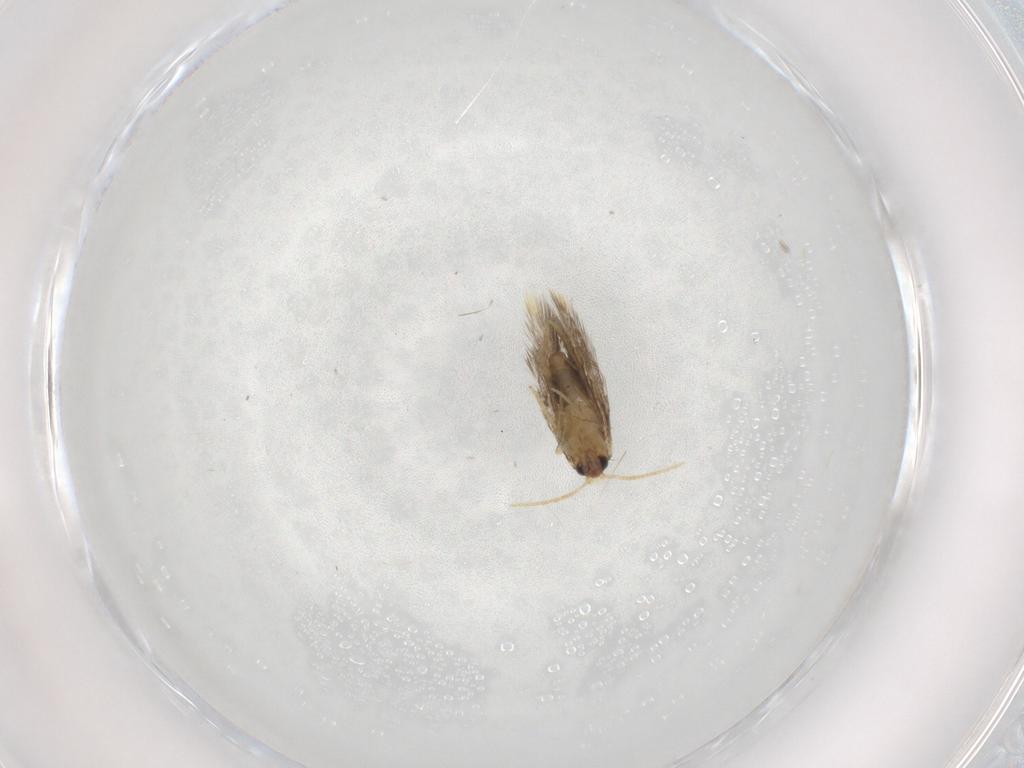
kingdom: Animalia
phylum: Arthropoda
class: Insecta
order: Lepidoptera
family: Copromorphidae
